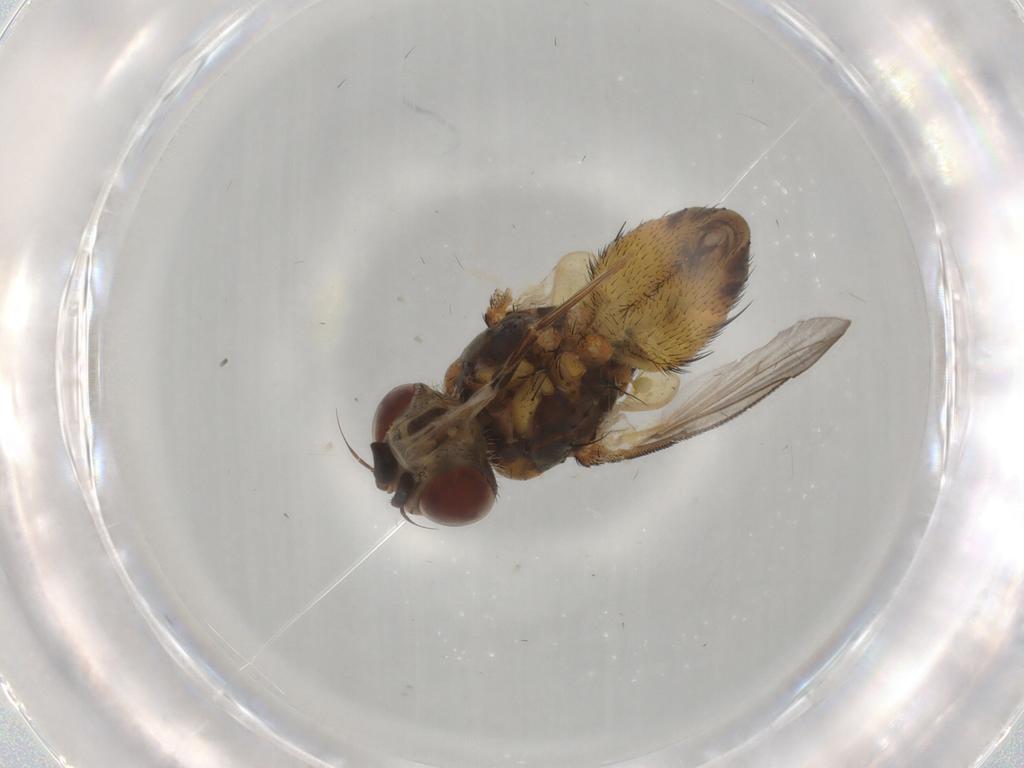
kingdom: Animalia
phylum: Arthropoda
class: Insecta
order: Diptera
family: Tachinidae
